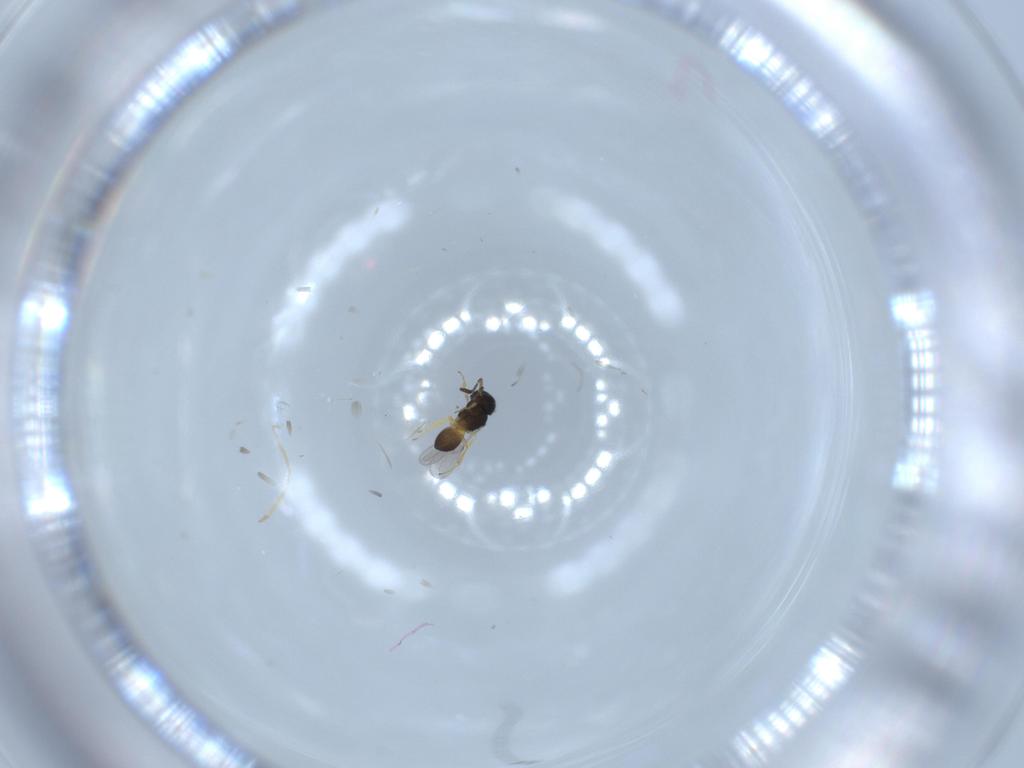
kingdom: Animalia
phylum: Arthropoda
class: Insecta
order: Hymenoptera
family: Scelionidae
